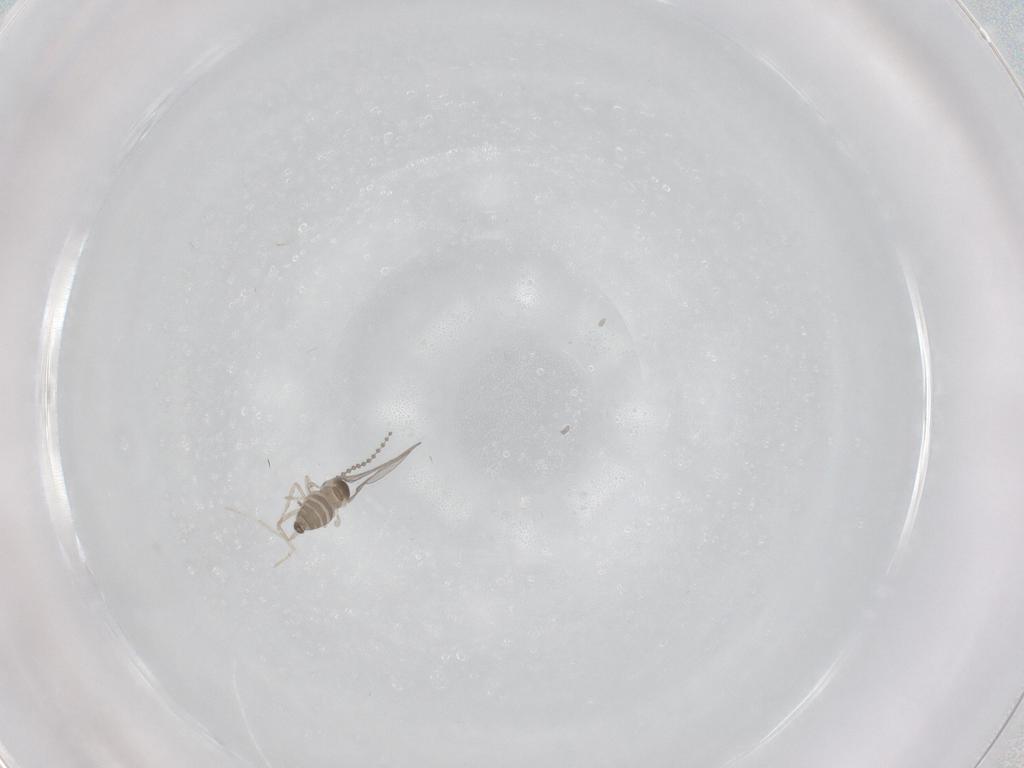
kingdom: Animalia
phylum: Arthropoda
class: Insecta
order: Diptera
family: Cecidomyiidae
